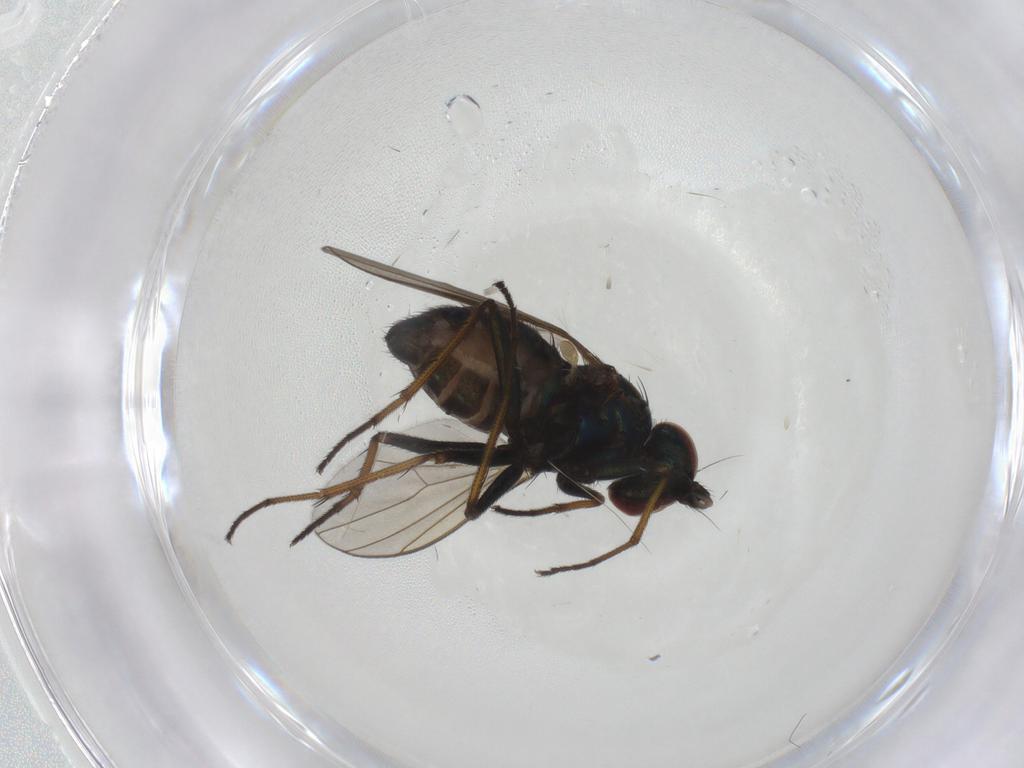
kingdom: Animalia
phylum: Arthropoda
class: Insecta
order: Diptera
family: Dolichopodidae
